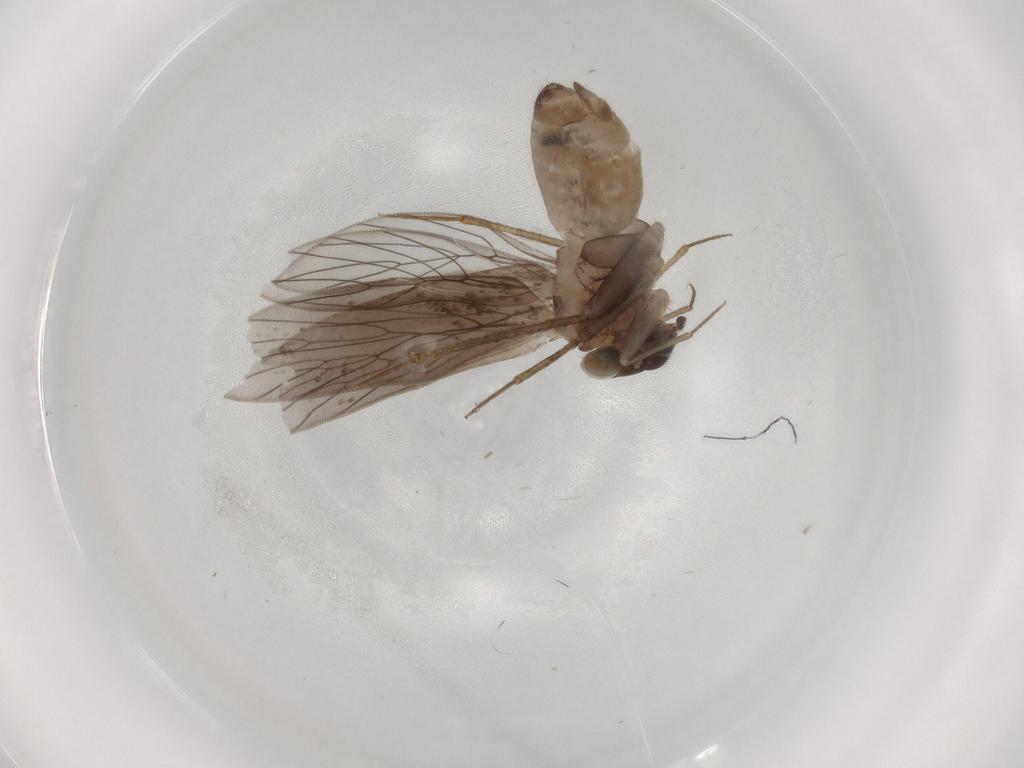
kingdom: Animalia
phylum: Arthropoda
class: Insecta
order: Psocodea
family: Lepidopsocidae
